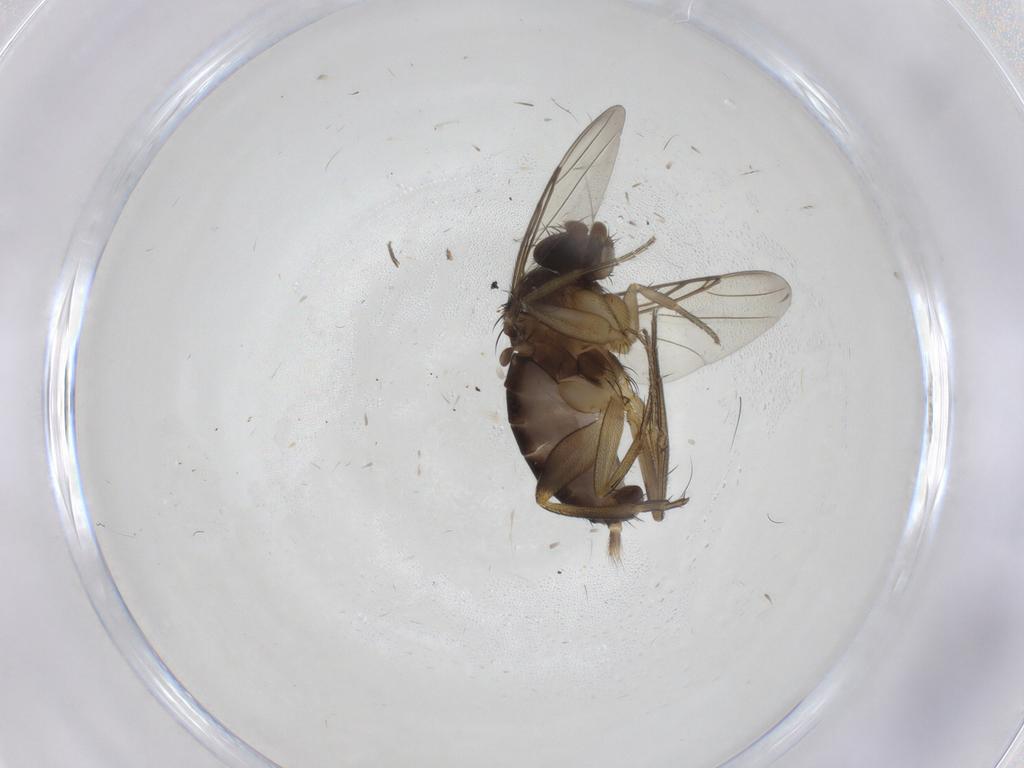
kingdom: Animalia
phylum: Arthropoda
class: Insecta
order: Diptera
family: Phoridae
